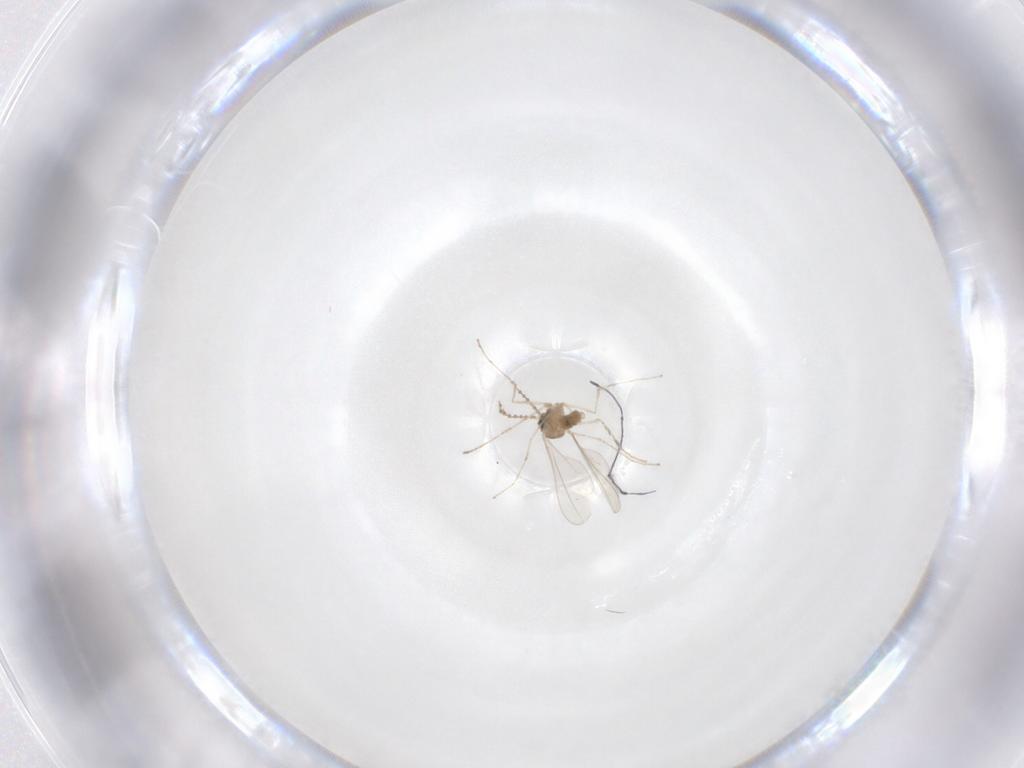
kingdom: Animalia
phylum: Arthropoda
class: Insecta
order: Diptera
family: Cecidomyiidae
